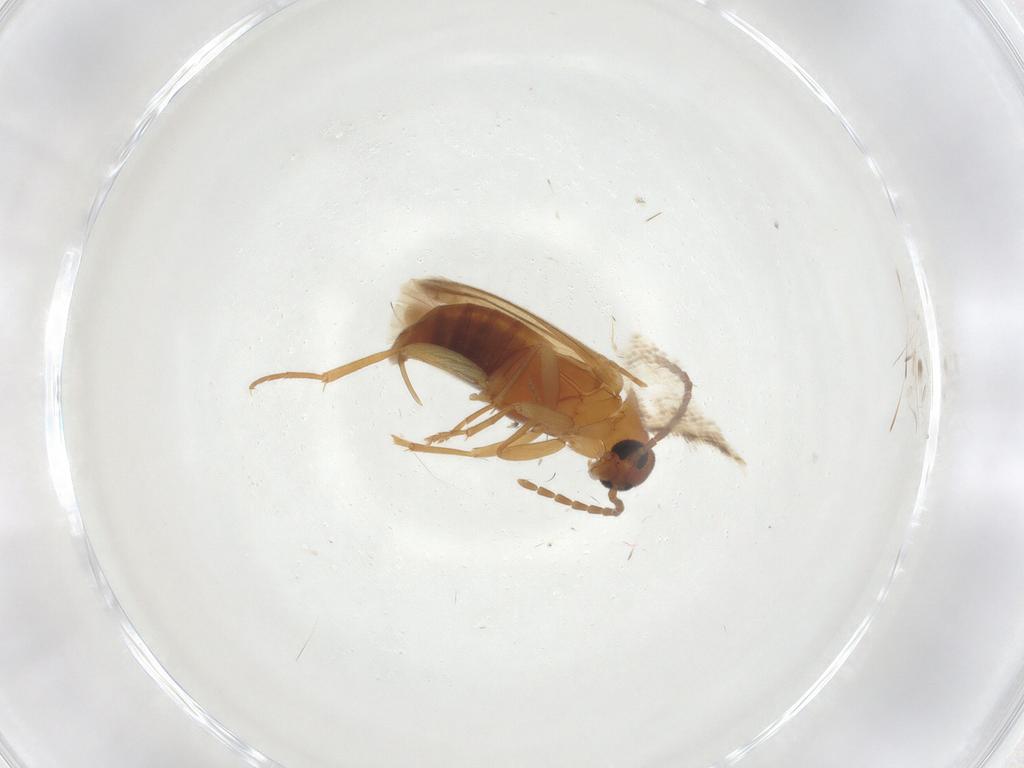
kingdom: Animalia
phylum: Arthropoda
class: Insecta
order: Coleoptera
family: Scraptiidae
